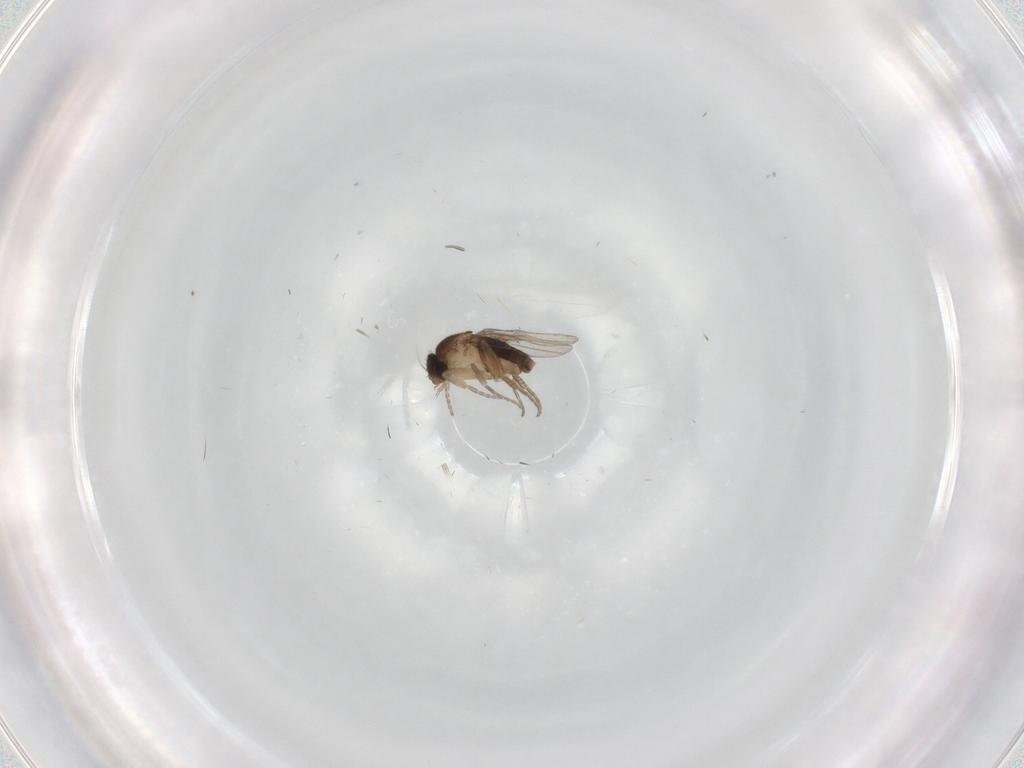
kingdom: Animalia
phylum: Arthropoda
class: Insecta
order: Diptera
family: Phoridae
